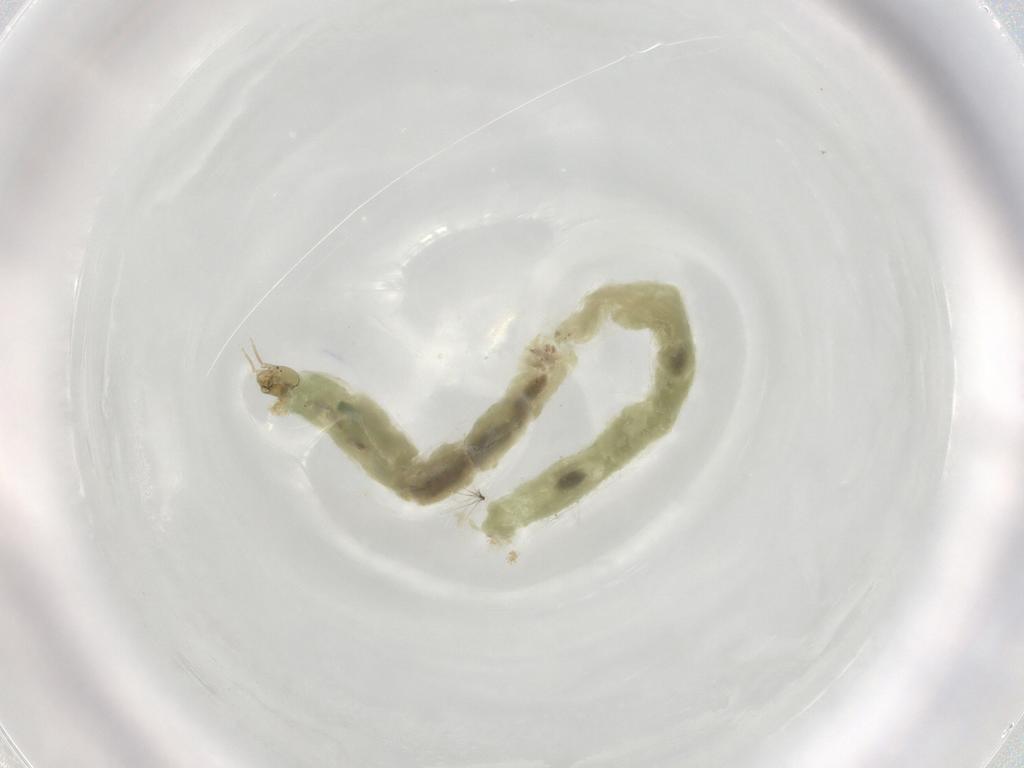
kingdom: Animalia
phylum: Arthropoda
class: Insecta
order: Diptera
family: Chironomidae
